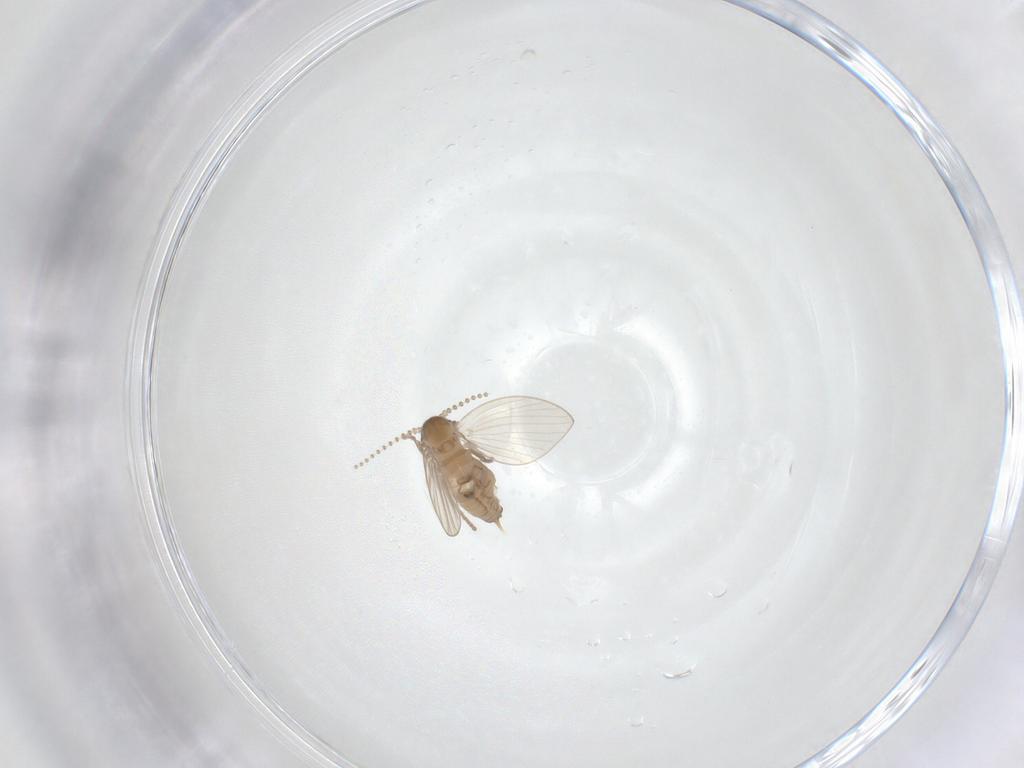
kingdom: Animalia
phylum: Arthropoda
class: Insecta
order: Diptera
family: Psychodidae
